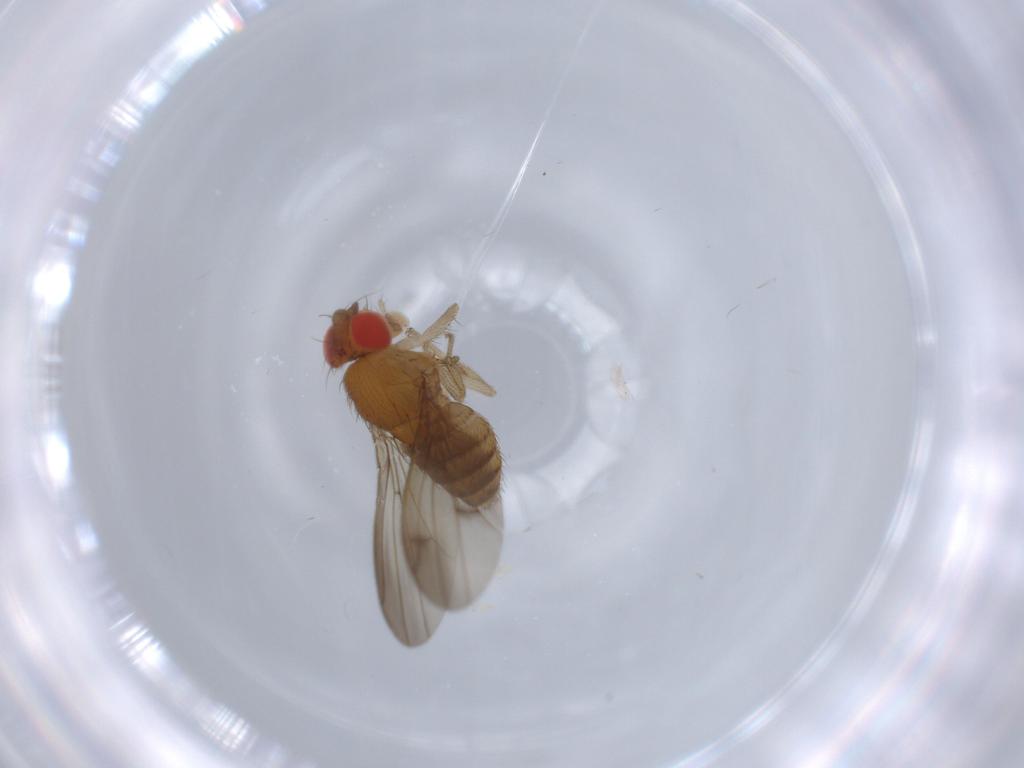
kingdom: Animalia
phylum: Arthropoda
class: Insecta
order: Diptera
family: Drosophilidae
